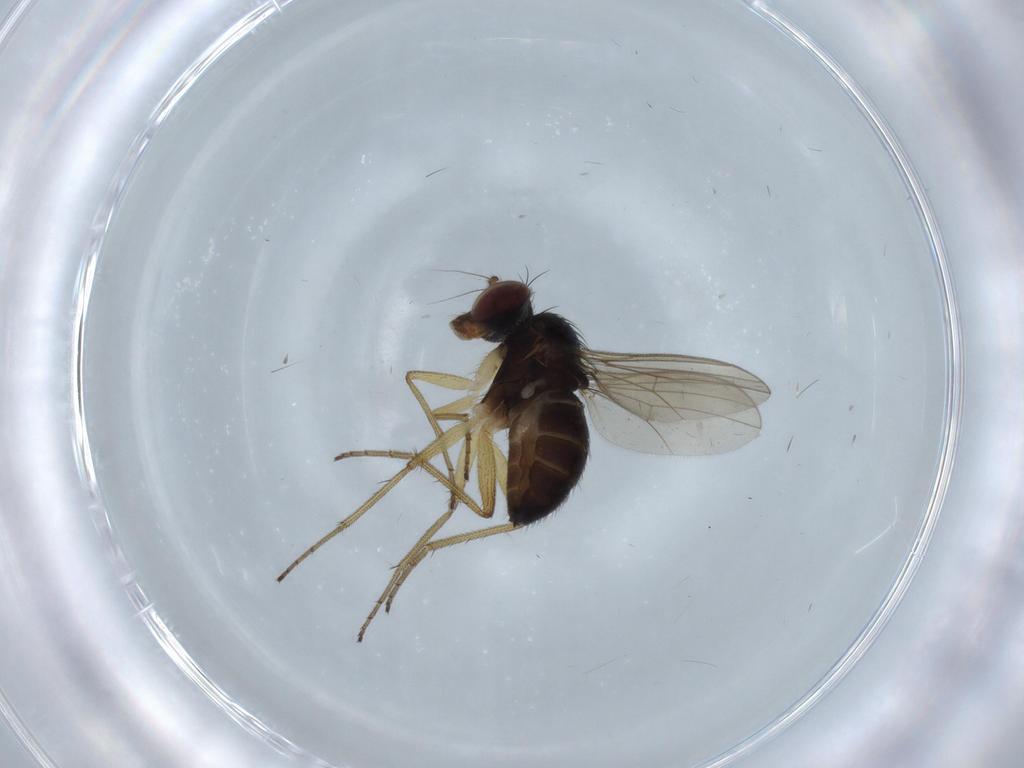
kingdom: Animalia
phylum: Arthropoda
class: Insecta
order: Diptera
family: Dolichopodidae
